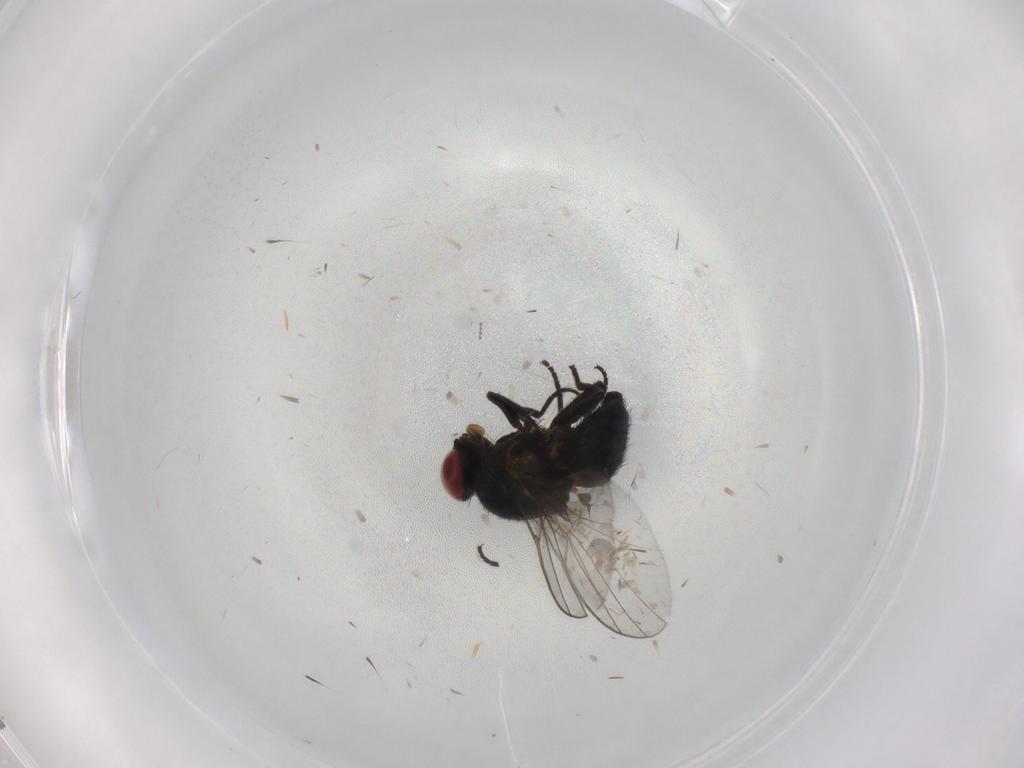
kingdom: Animalia
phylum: Arthropoda
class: Insecta
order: Diptera
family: Agromyzidae
